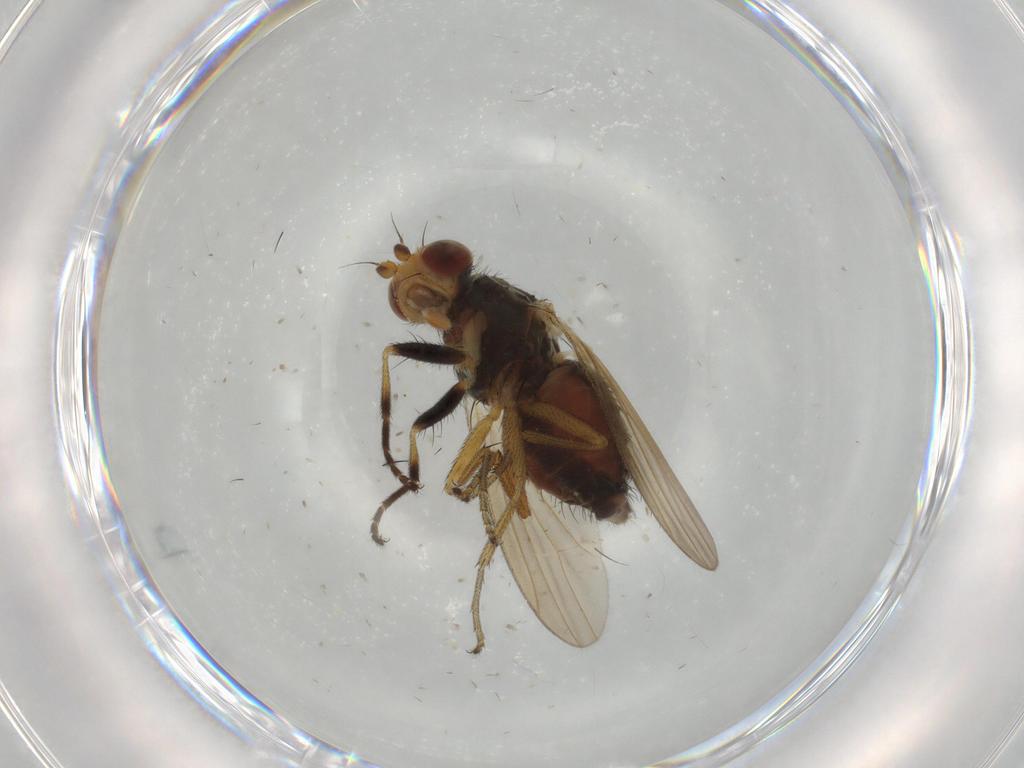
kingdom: Animalia
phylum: Arthropoda
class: Insecta
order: Diptera
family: Ulidiidae
